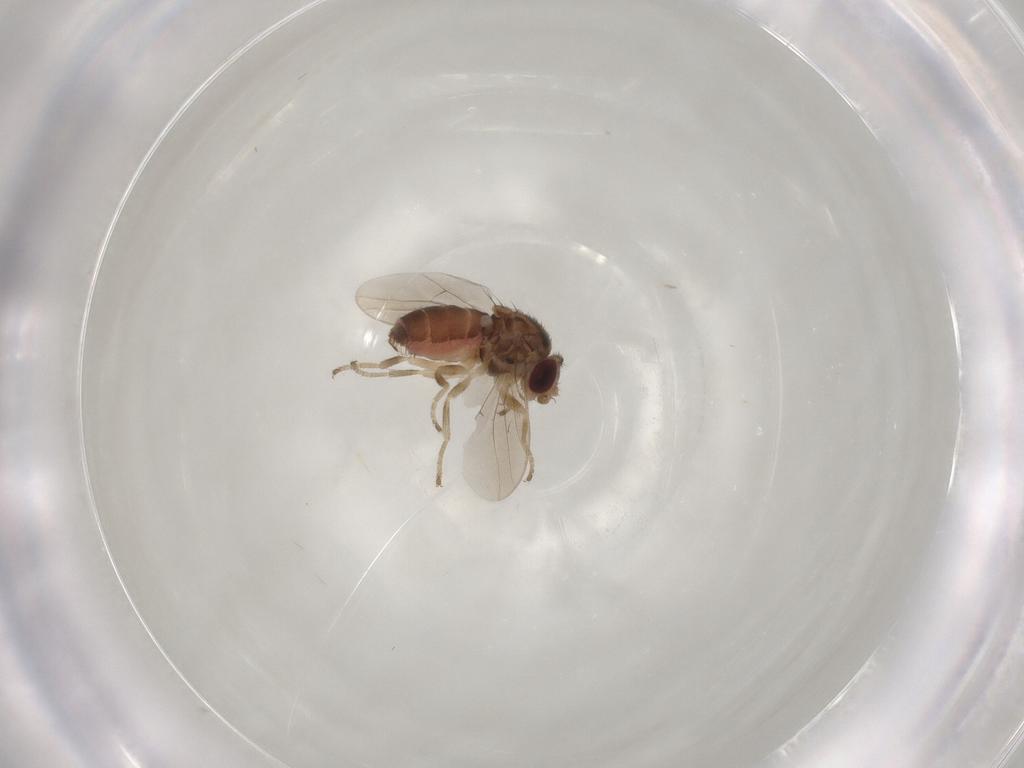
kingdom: Animalia
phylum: Arthropoda
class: Insecta
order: Diptera
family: Chloropidae
